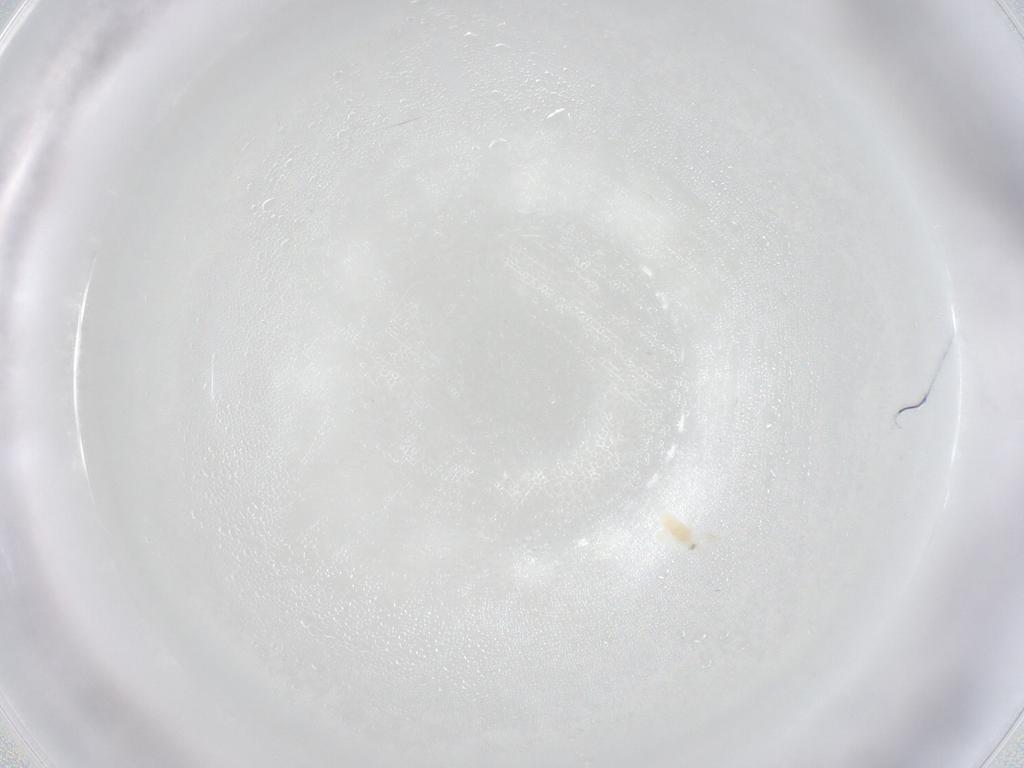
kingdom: Animalia
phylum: Arthropoda
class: Collembola
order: Entomobryomorpha
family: Entomobryidae
